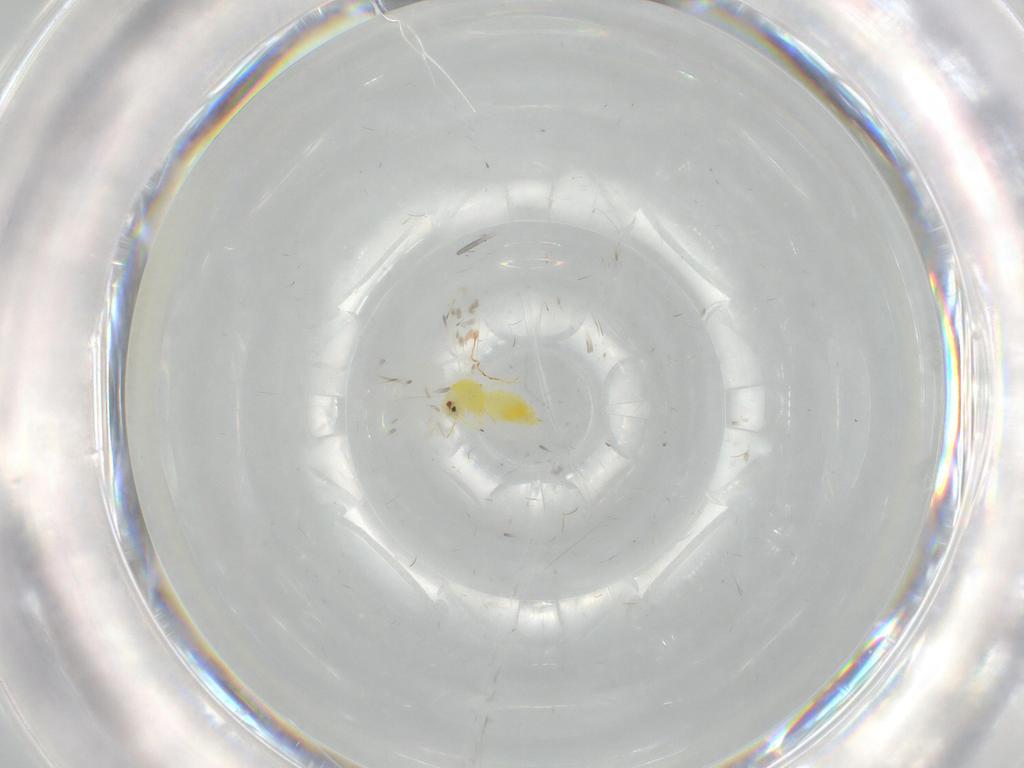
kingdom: Animalia
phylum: Arthropoda
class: Insecta
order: Hemiptera
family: Aleyrodidae
